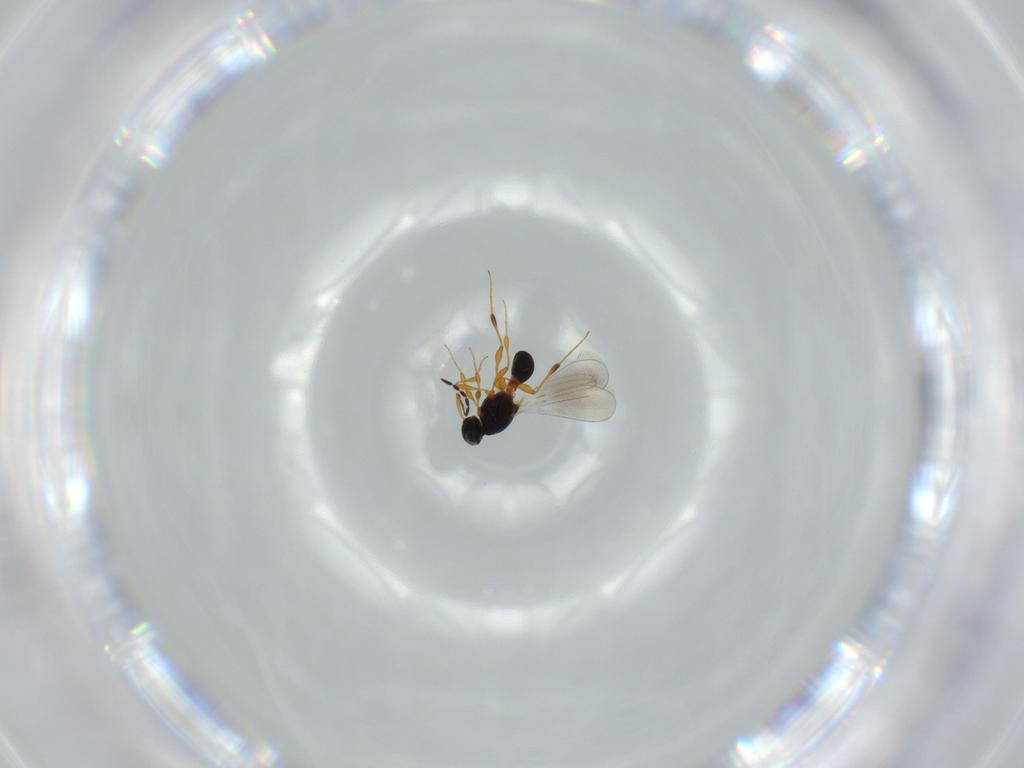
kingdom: Animalia
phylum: Arthropoda
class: Insecta
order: Hymenoptera
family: Platygastridae
